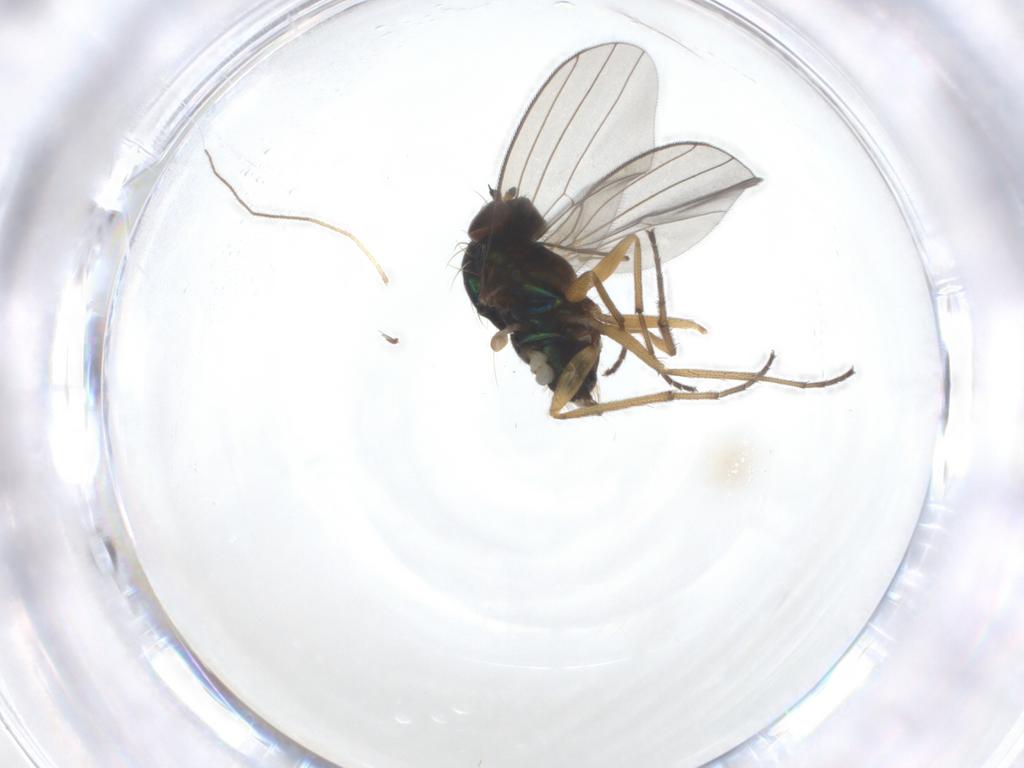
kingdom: Animalia
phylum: Arthropoda
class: Insecta
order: Diptera
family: Dolichopodidae
